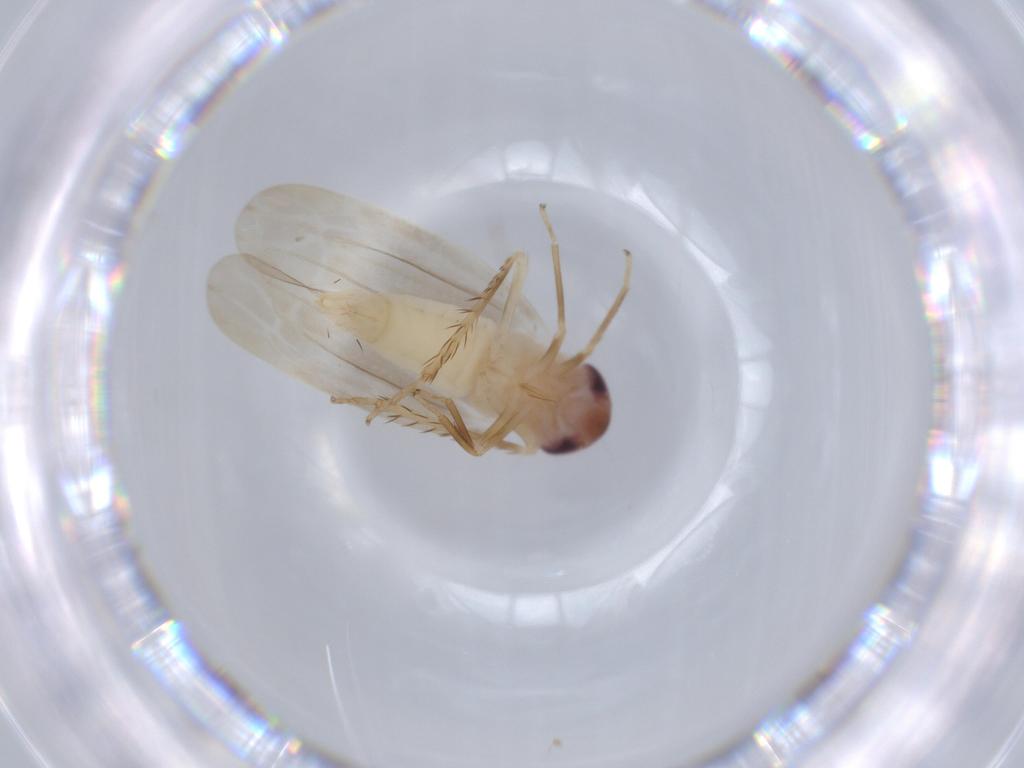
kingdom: Animalia
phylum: Arthropoda
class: Insecta
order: Hemiptera
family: Cicadellidae
